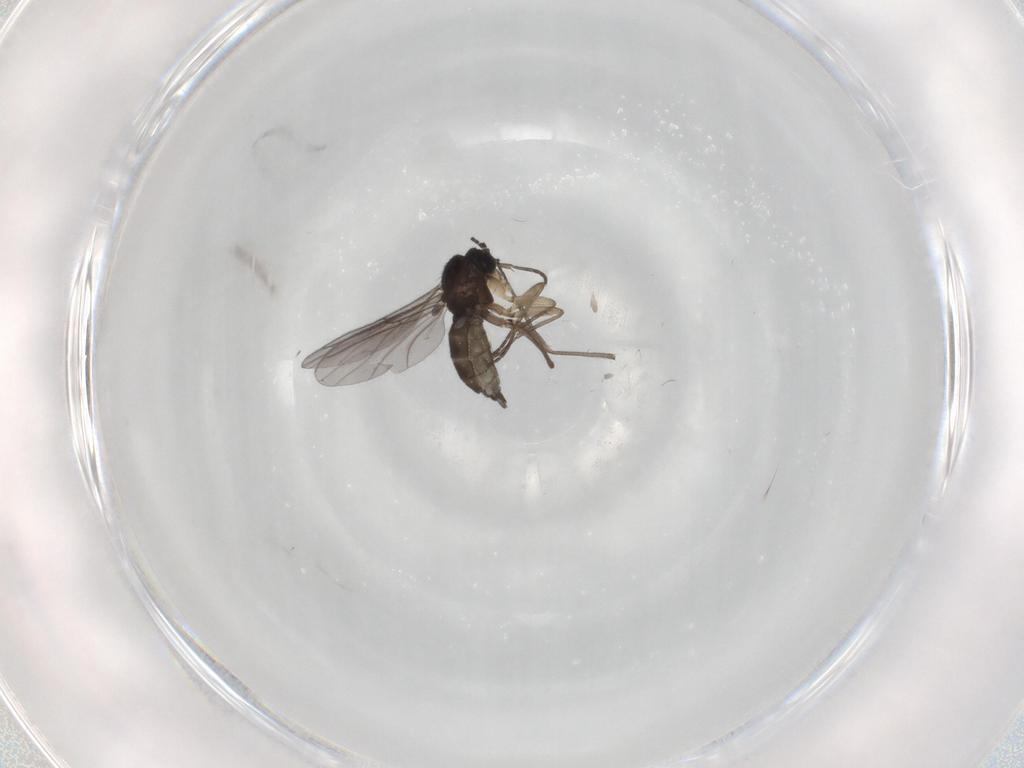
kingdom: Animalia
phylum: Arthropoda
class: Insecta
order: Diptera
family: Sciaridae
